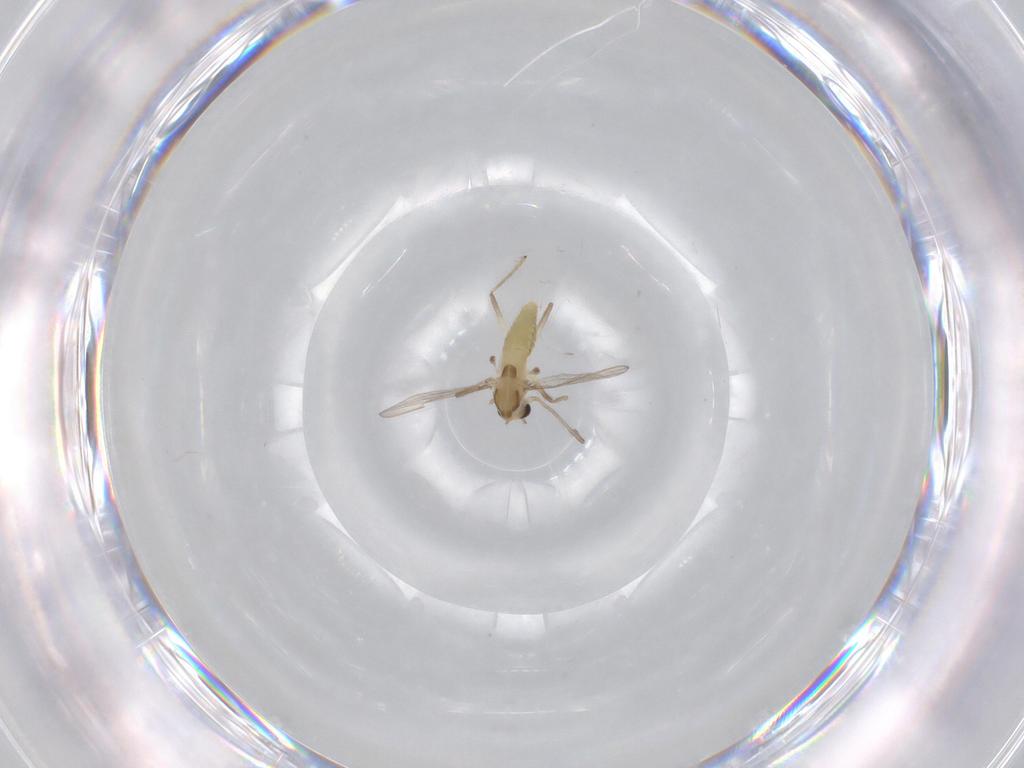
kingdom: Animalia
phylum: Arthropoda
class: Insecta
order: Diptera
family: Chironomidae
